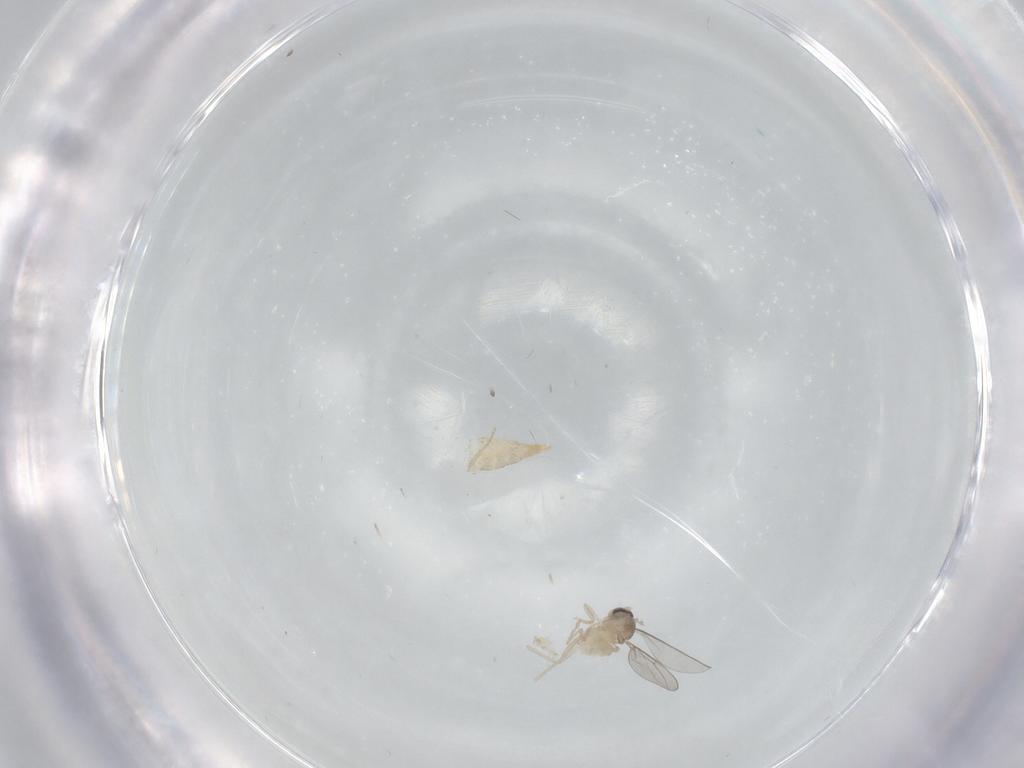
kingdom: Animalia
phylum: Arthropoda
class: Insecta
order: Diptera
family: Cecidomyiidae
